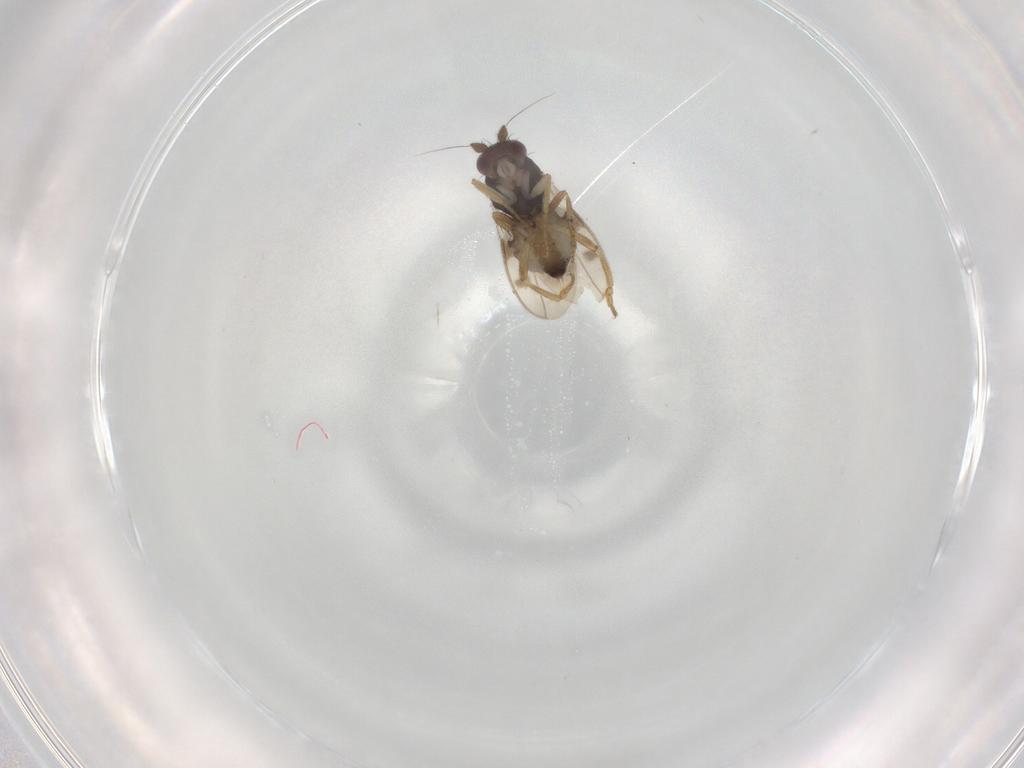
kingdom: Animalia
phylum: Arthropoda
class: Insecta
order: Diptera
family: Sphaeroceridae
